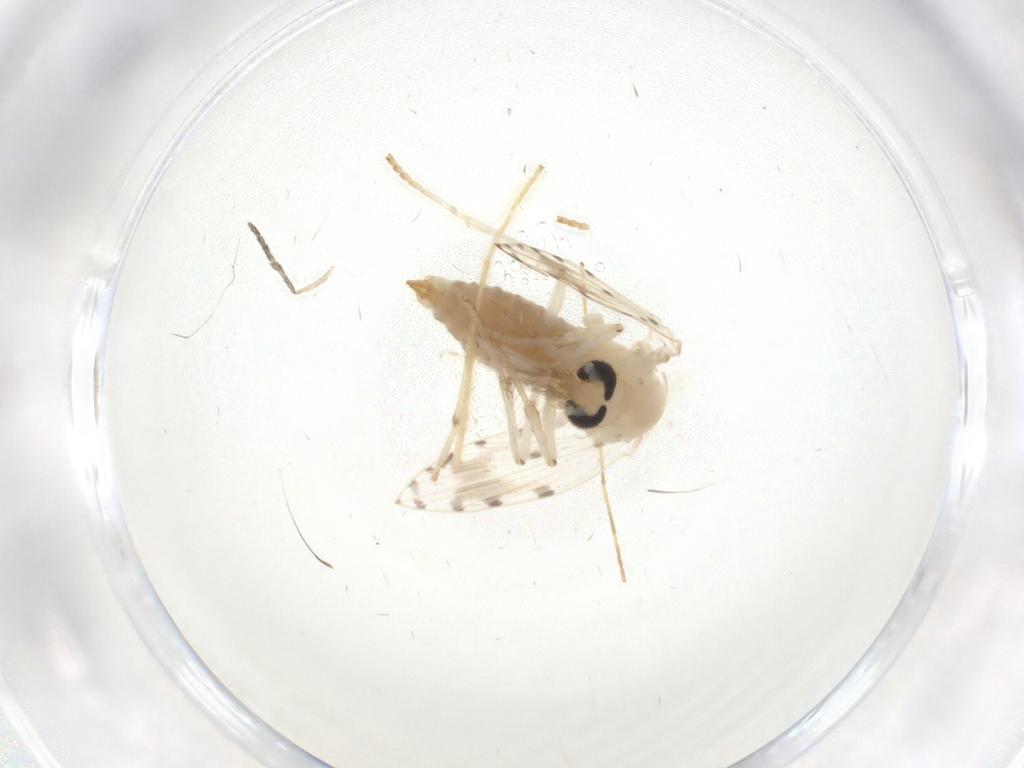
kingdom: Animalia
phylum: Arthropoda
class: Insecta
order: Diptera
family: Psychodidae
